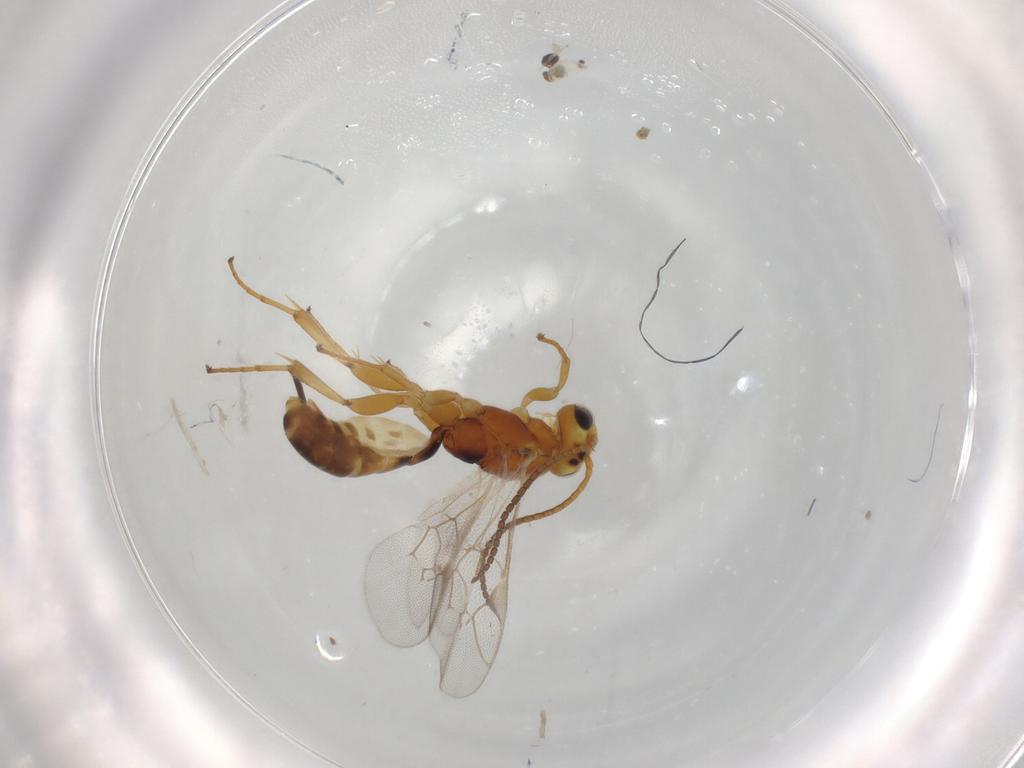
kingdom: Animalia
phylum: Arthropoda
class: Insecta
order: Hymenoptera
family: Ichneumonidae
